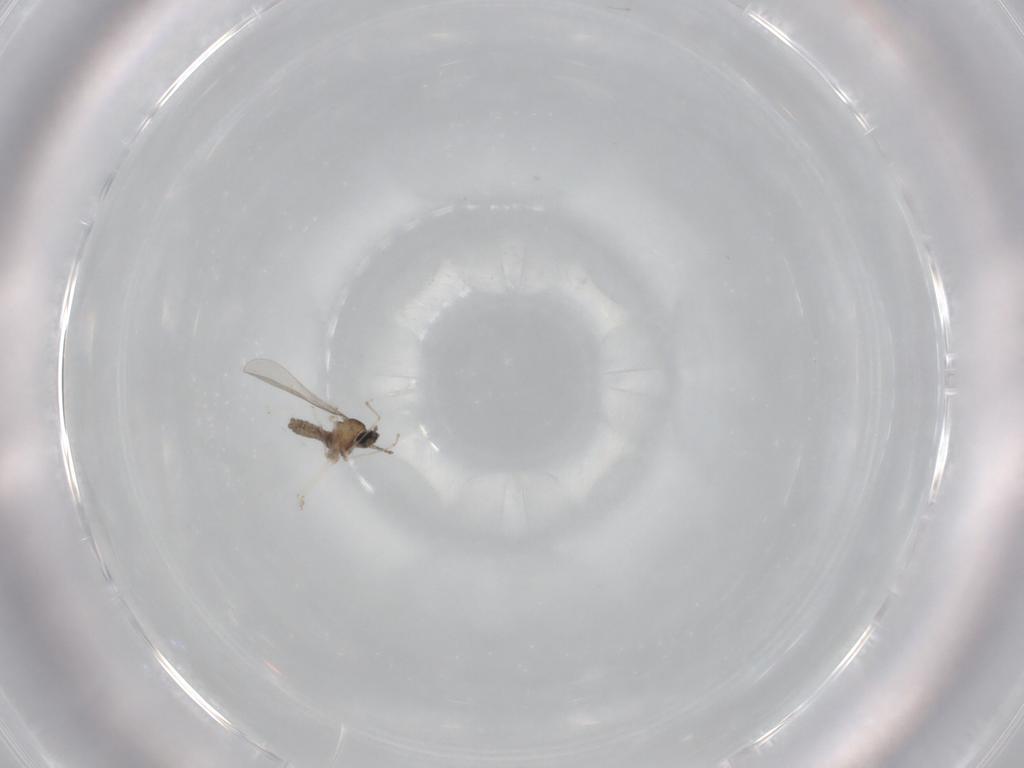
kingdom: Animalia
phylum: Arthropoda
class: Insecta
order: Diptera
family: Cecidomyiidae
